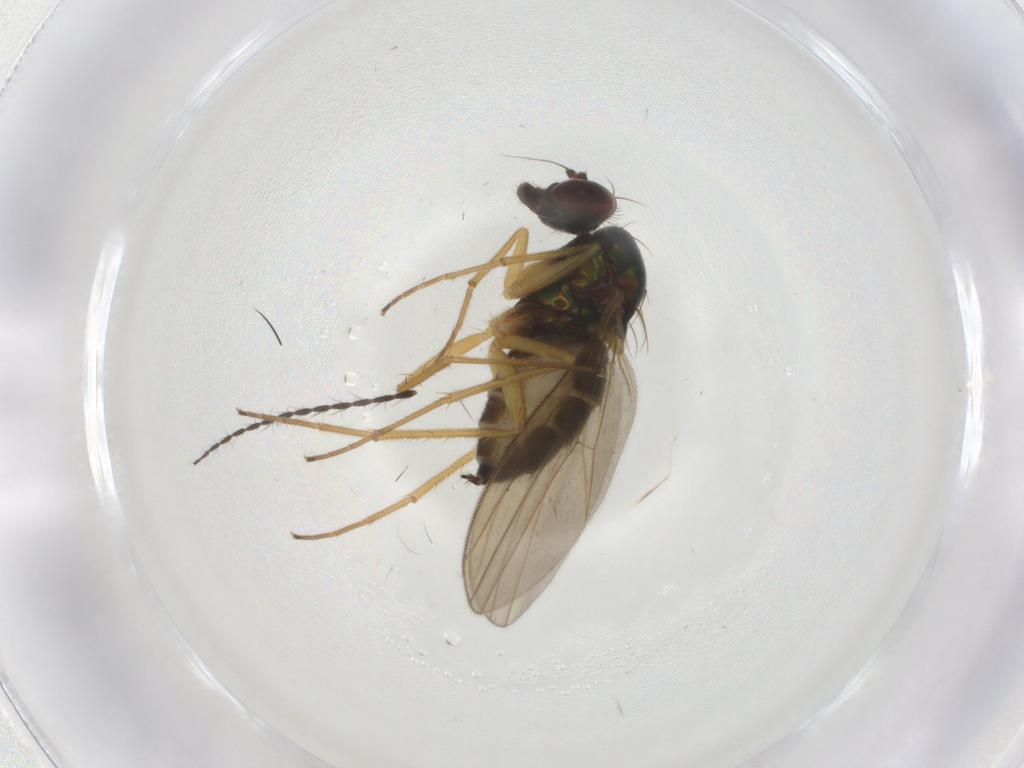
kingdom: Animalia
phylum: Arthropoda
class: Insecta
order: Diptera
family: Dolichopodidae
